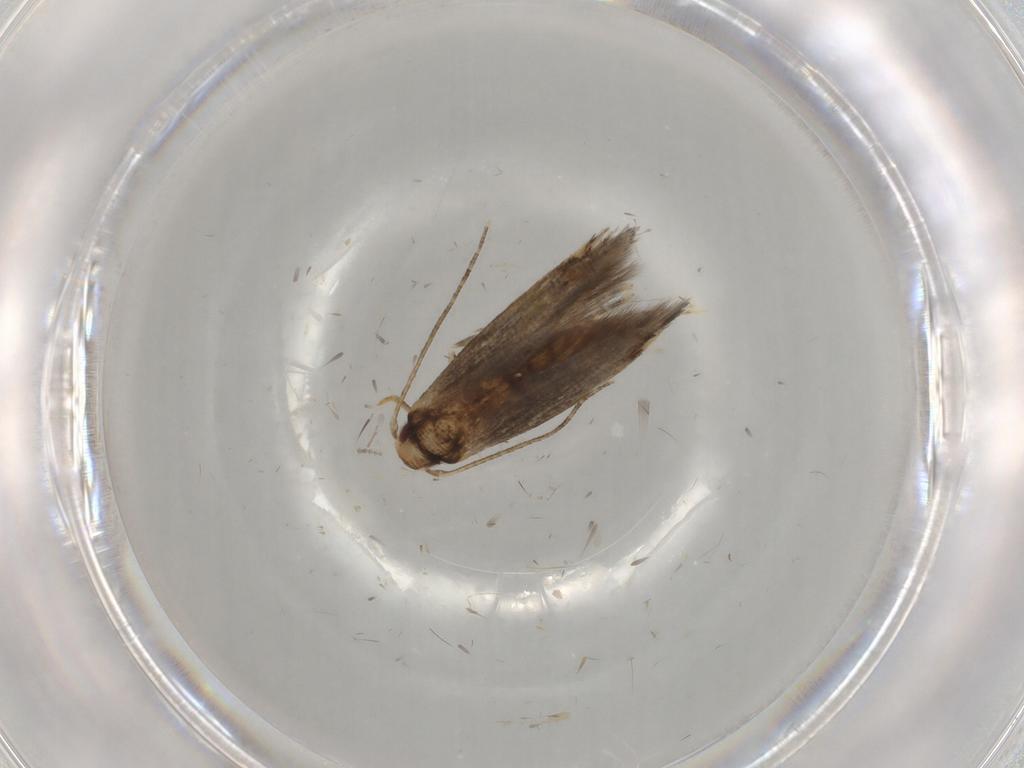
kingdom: Animalia
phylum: Arthropoda
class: Insecta
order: Lepidoptera
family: Momphidae
